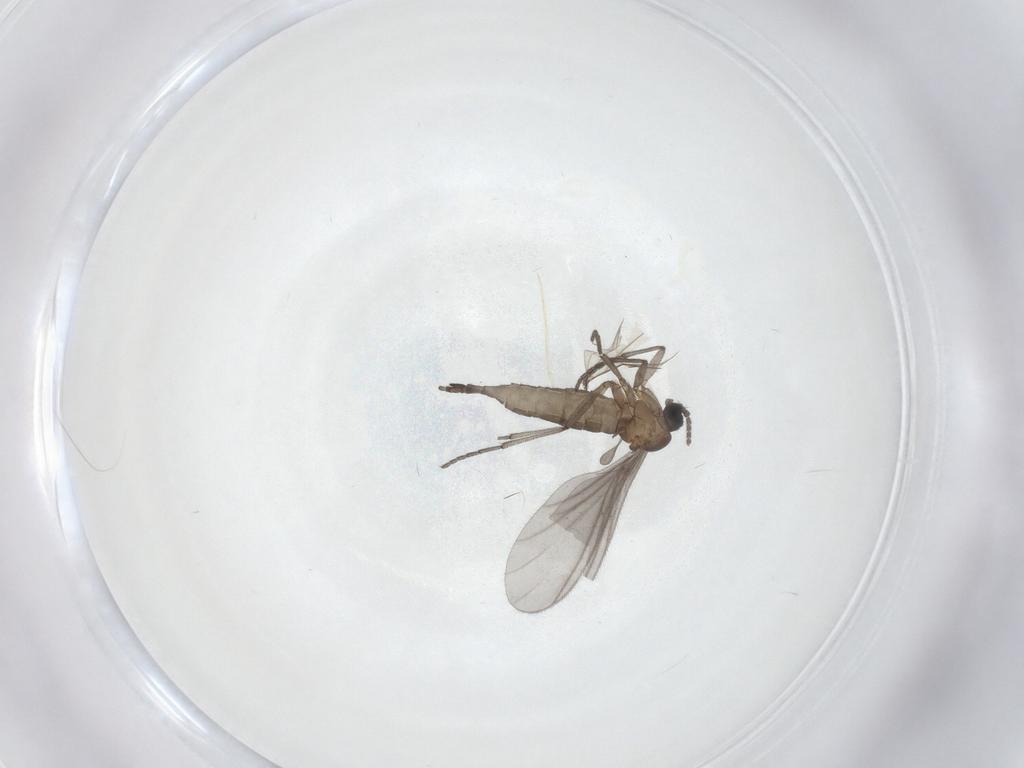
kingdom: Animalia
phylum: Arthropoda
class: Insecta
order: Diptera
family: Sciaridae
